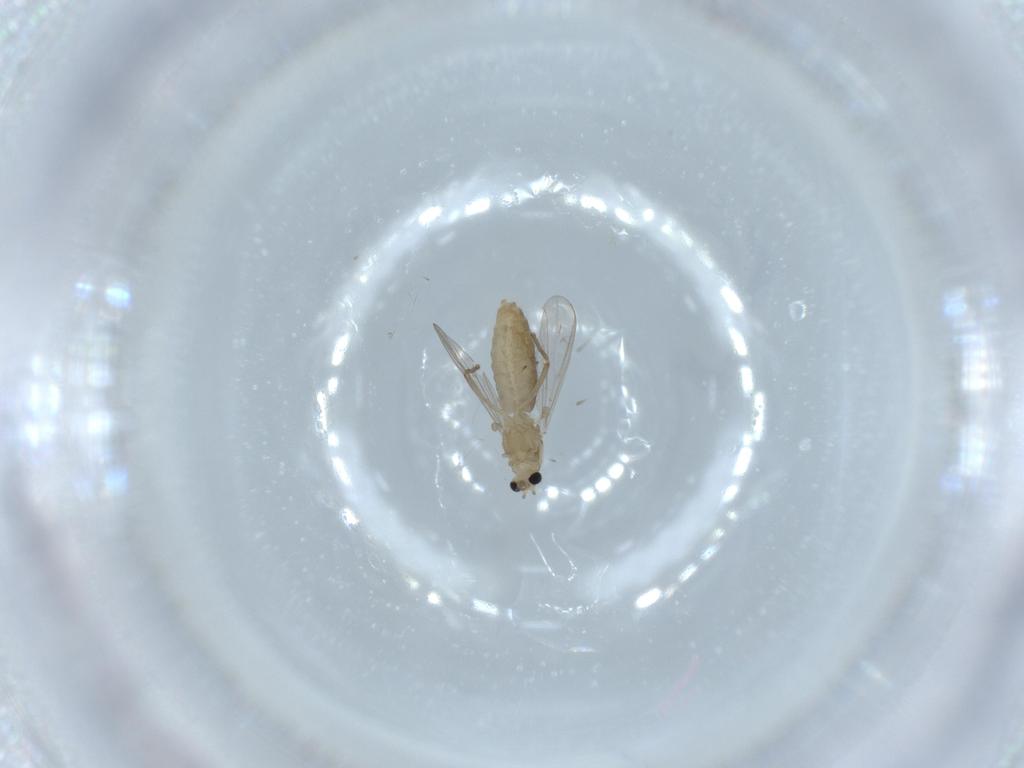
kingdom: Animalia
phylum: Arthropoda
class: Insecta
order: Diptera
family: Chironomidae
